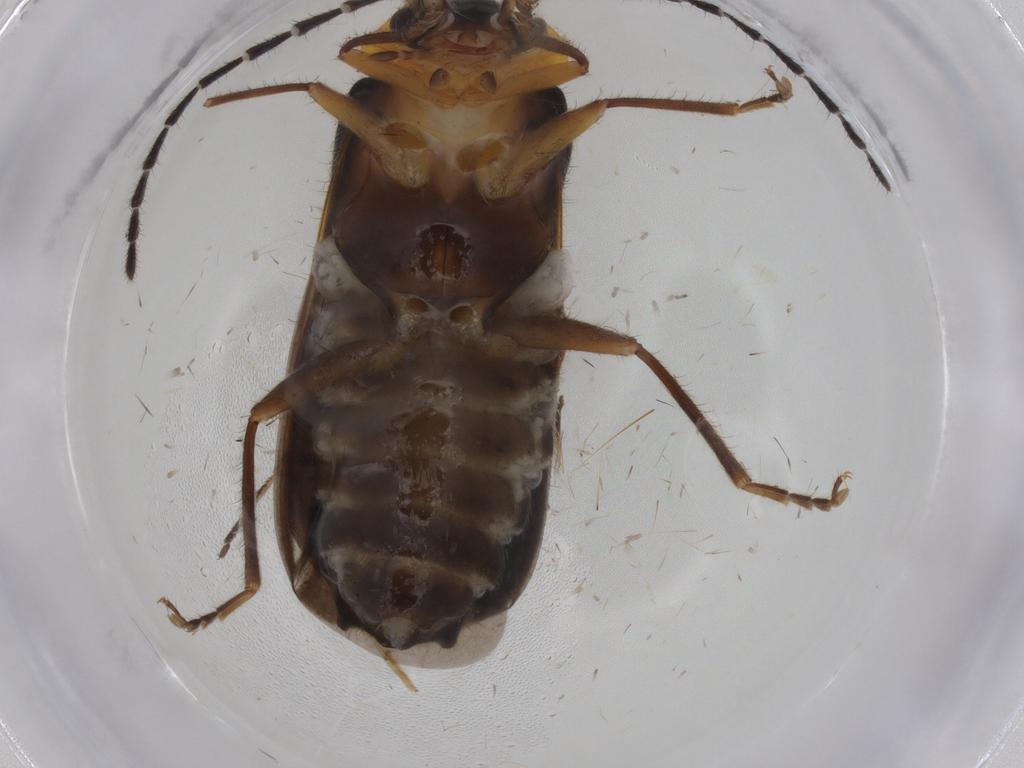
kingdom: Animalia
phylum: Arthropoda
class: Insecta
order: Coleoptera
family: Cantharidae
